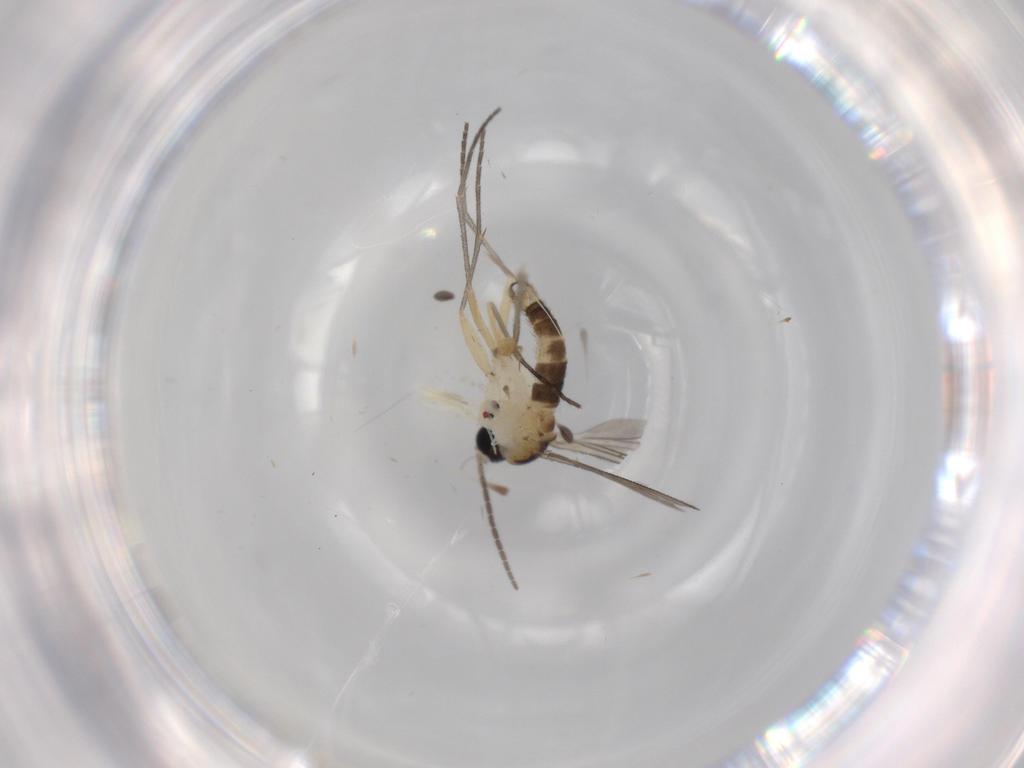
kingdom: Animalia
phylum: Arthropoda
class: Insecta
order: Diptera
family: Sciaridae
